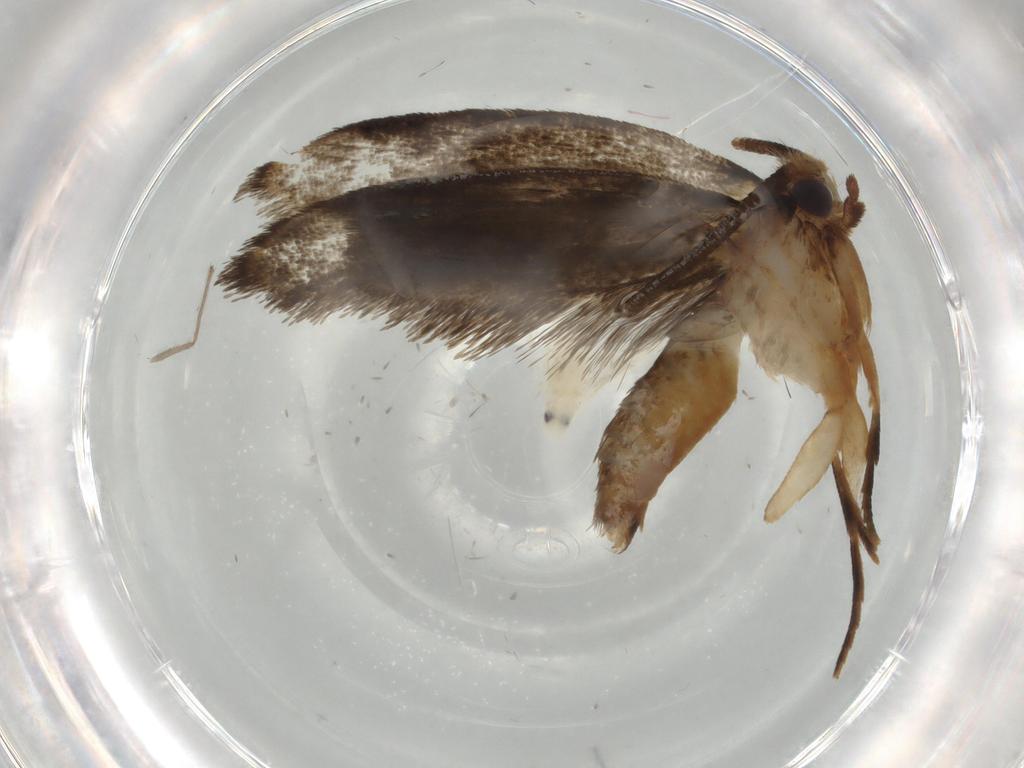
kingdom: Animalia
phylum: Arthropoda
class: Insecta
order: Lepidoptera
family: Tineidae
